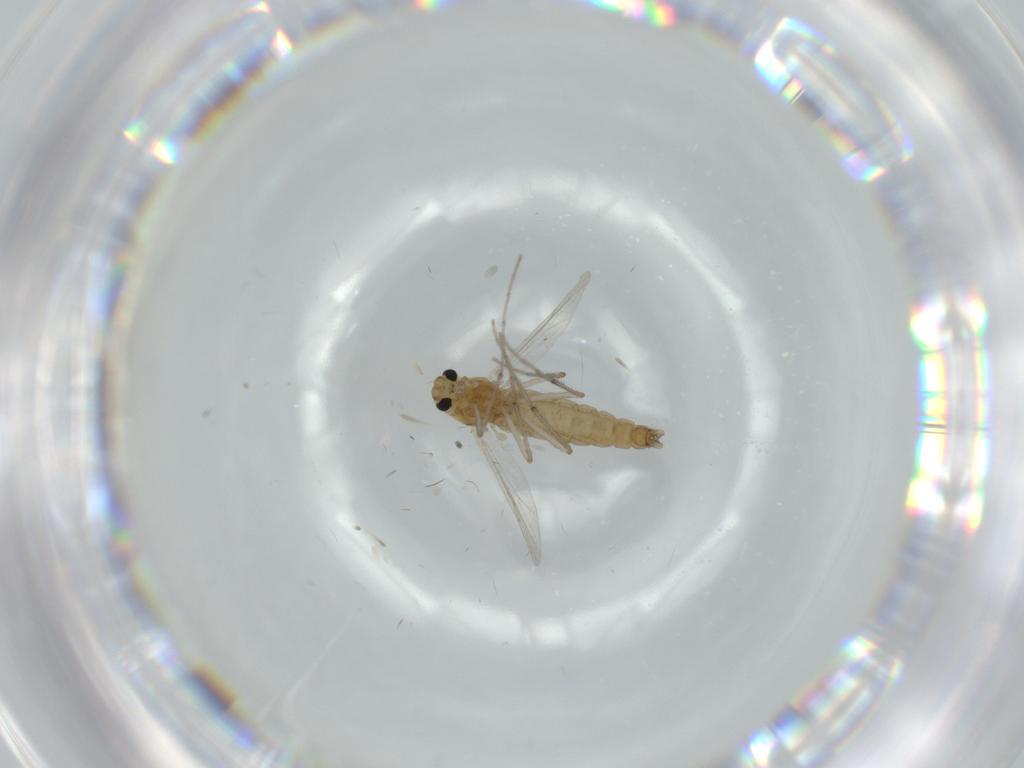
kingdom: Animalia
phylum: Arthropoda
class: Insecta
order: Diptera
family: Chironomidae
